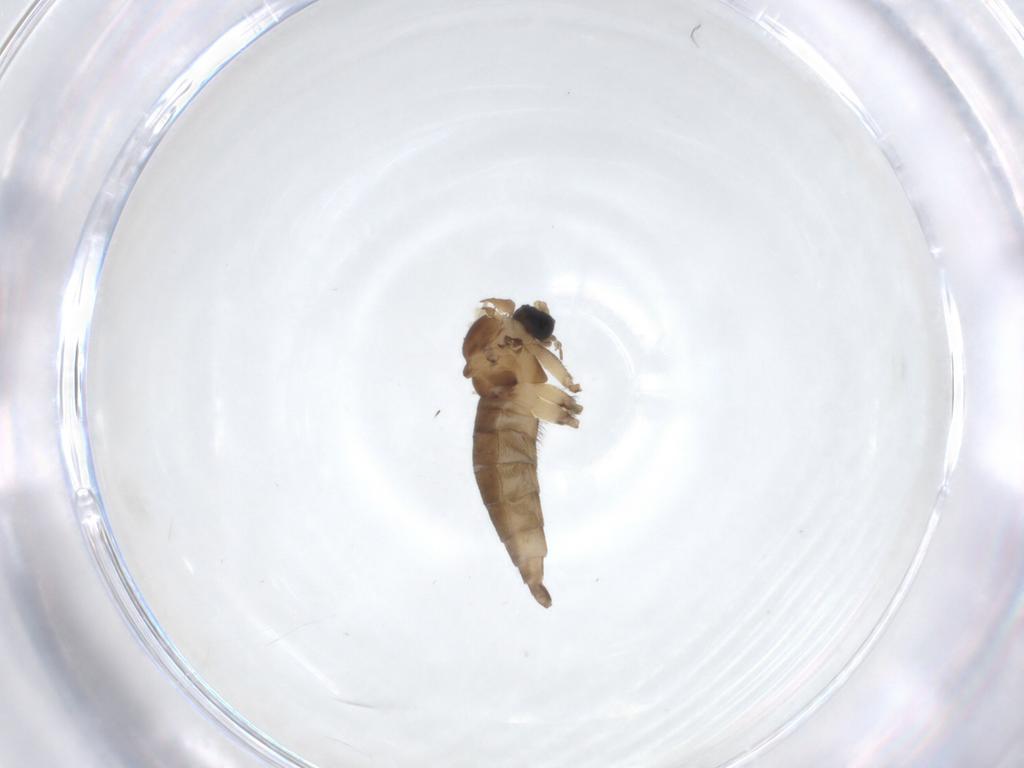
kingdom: Animalia
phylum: Arthropoda
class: Insecta
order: Diptera
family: Sciaridae
